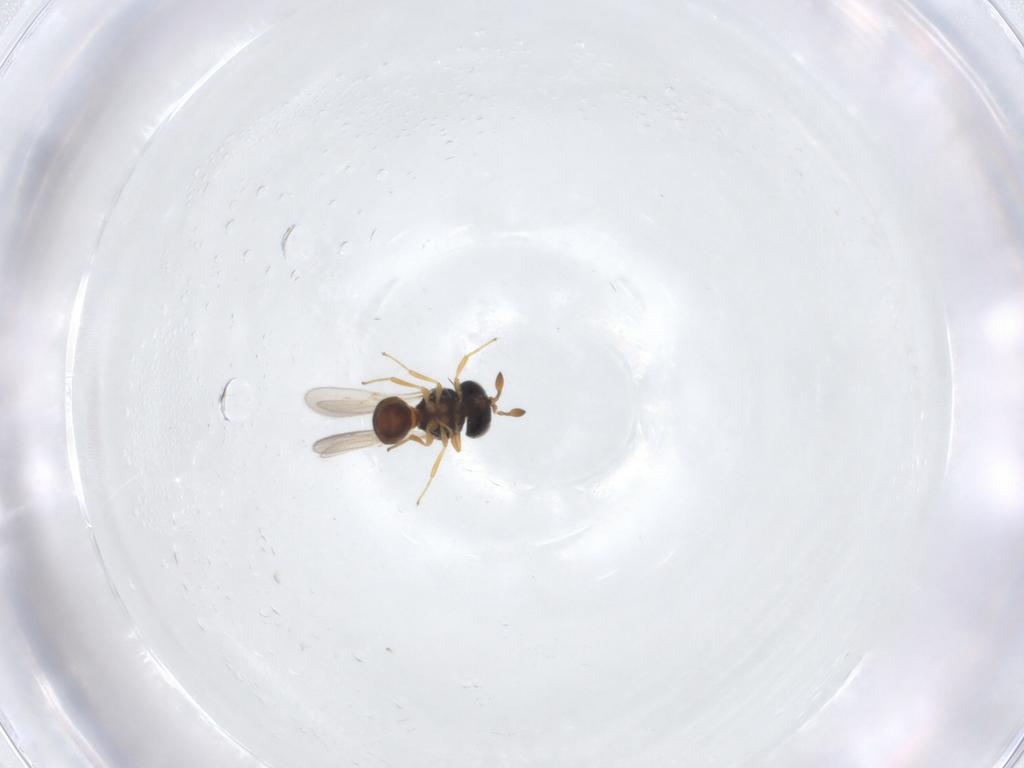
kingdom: Animalia
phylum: Arthropoda
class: Insecta
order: Hymenoptera
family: Scelionidae
